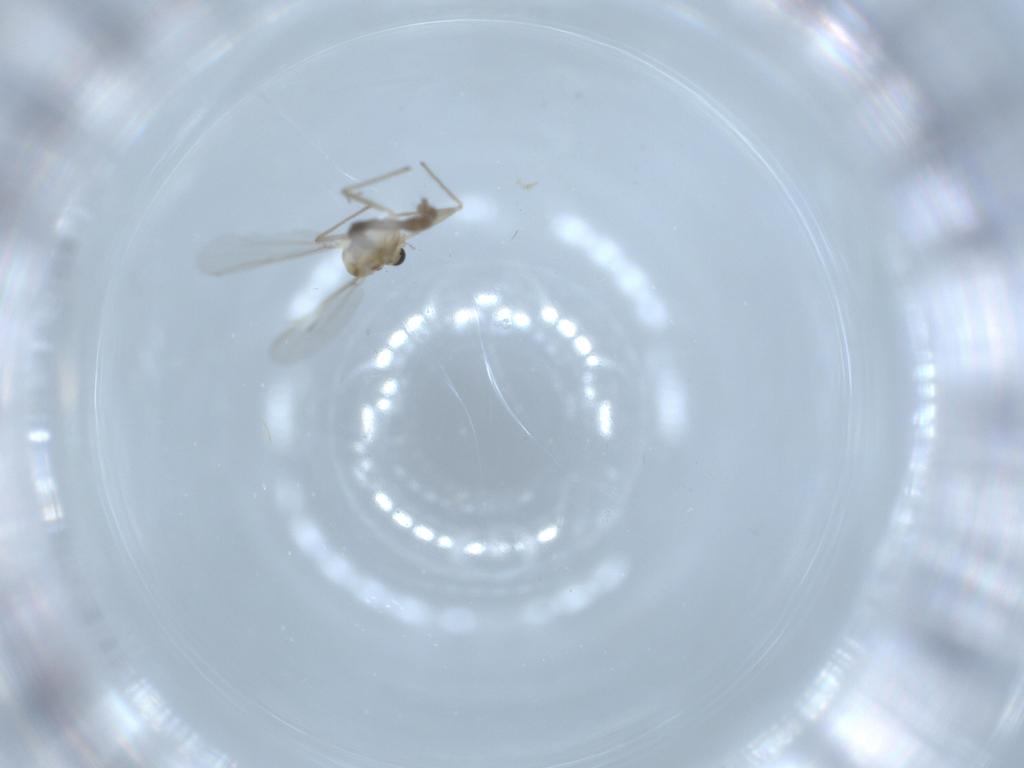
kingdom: Animalia
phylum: Arthropoda
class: Insecta
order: Diptera
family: Chironomidae
